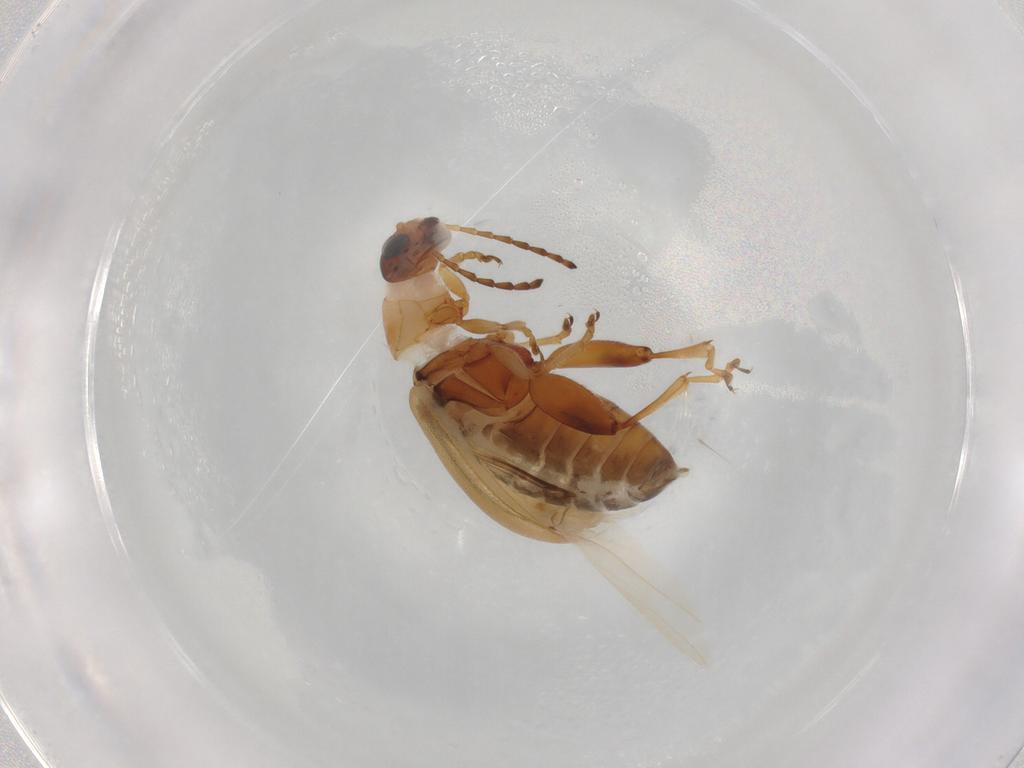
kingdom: Animalia
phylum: Arthropoda
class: Insecta
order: Coleoptera
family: Chrysomelidae
